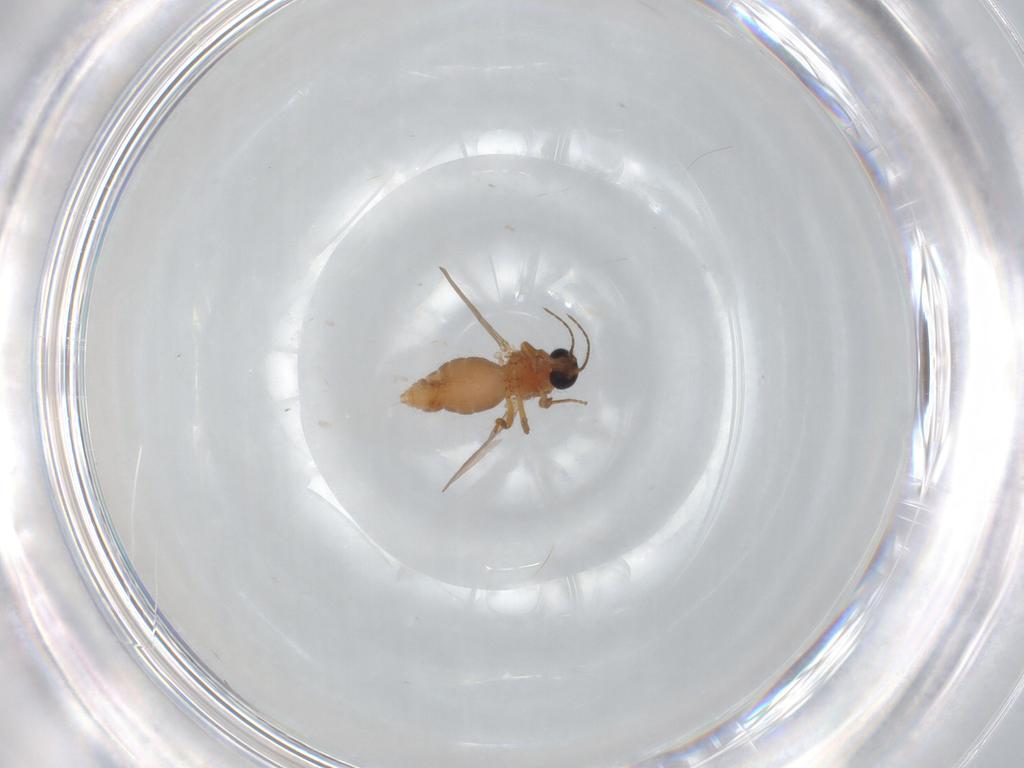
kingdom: Animalia
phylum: Arthropoda
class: Insecta
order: Diptera
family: Ceratopogonidae
